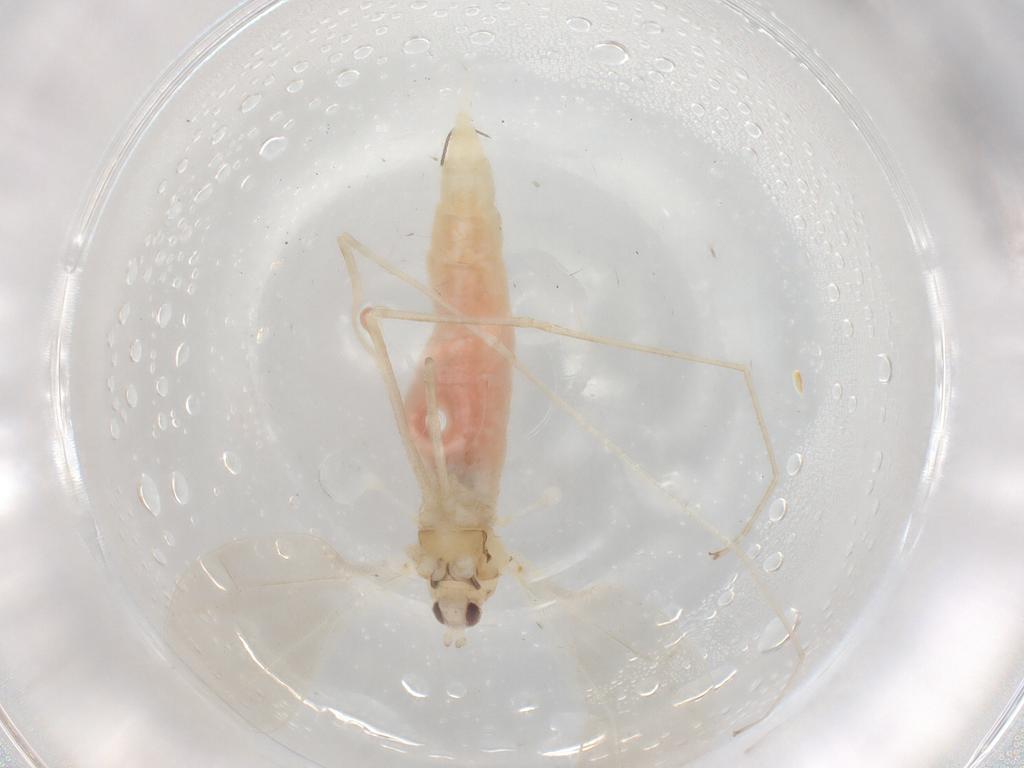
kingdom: Animalia
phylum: Arthropoda
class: Insecta
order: Diptera
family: Cecidomyiidae
